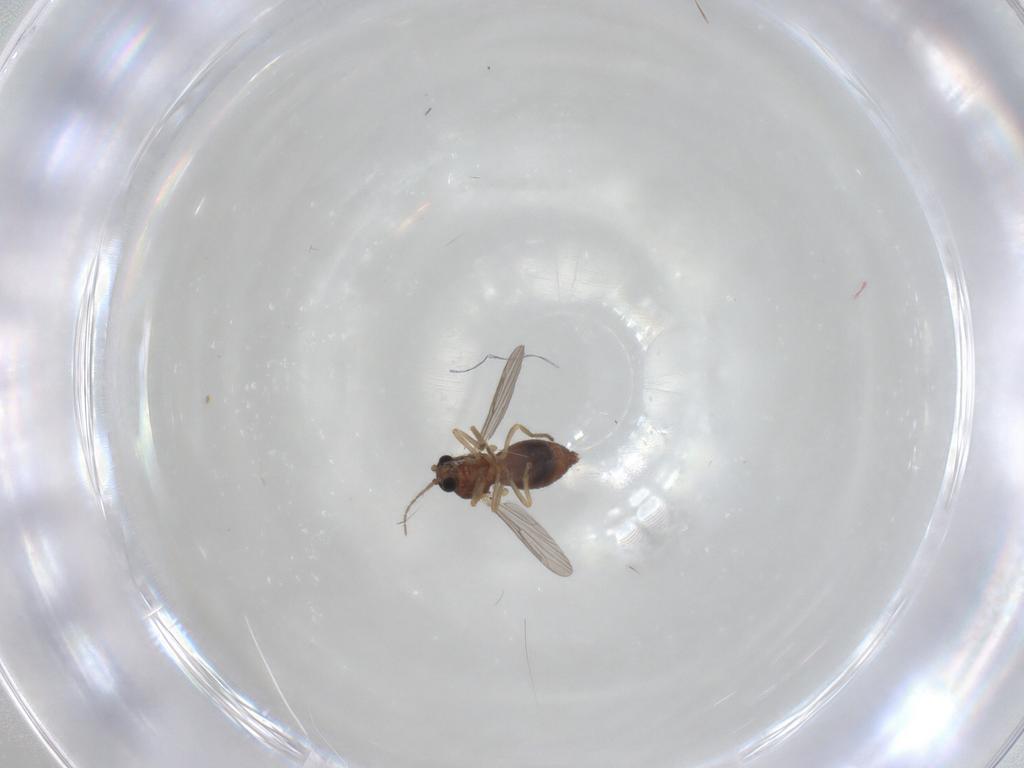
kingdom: Animalia
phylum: Arthropoda
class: Insecta
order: Diptera
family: Ceratopogonidae
